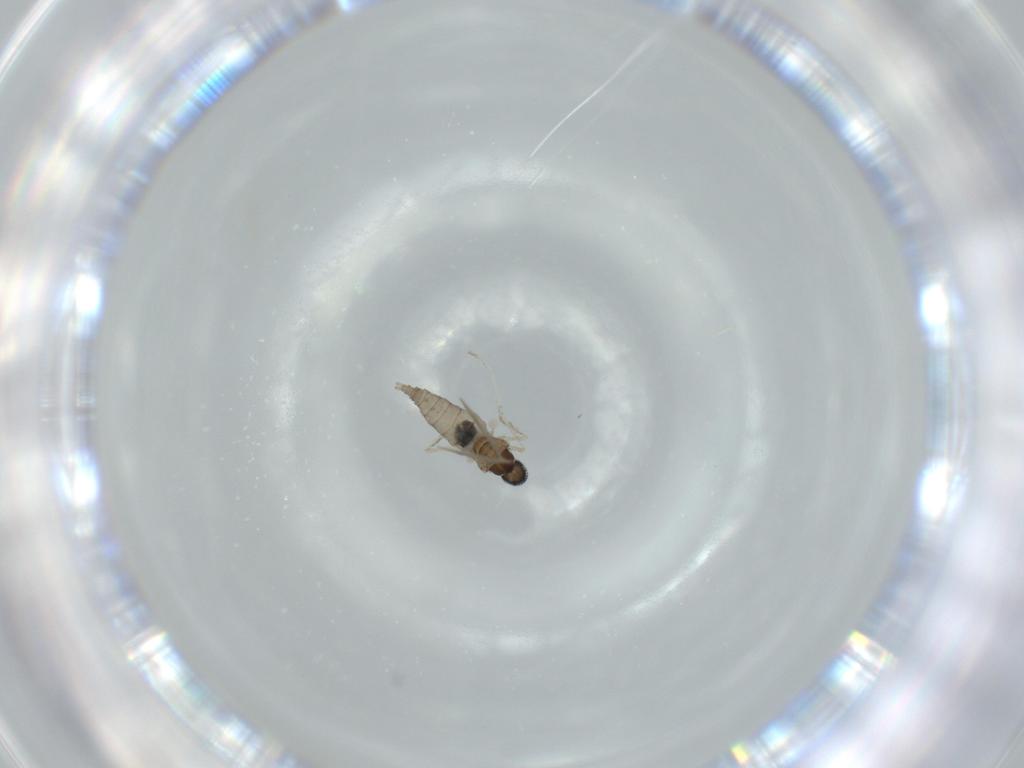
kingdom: Animalia
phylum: Arthropoda
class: Insecta
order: Diptera
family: Cecidomyiidae
